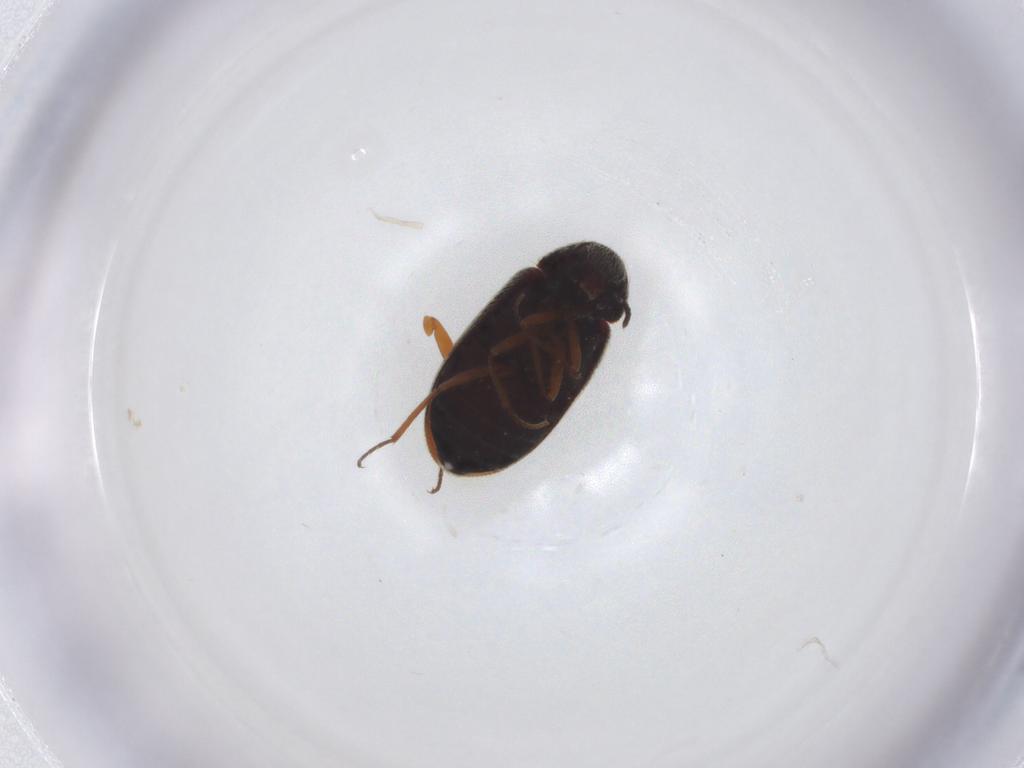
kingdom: Animalia
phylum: Arthropoda
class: Insecta
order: Coleoptera
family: Rhadalidae
